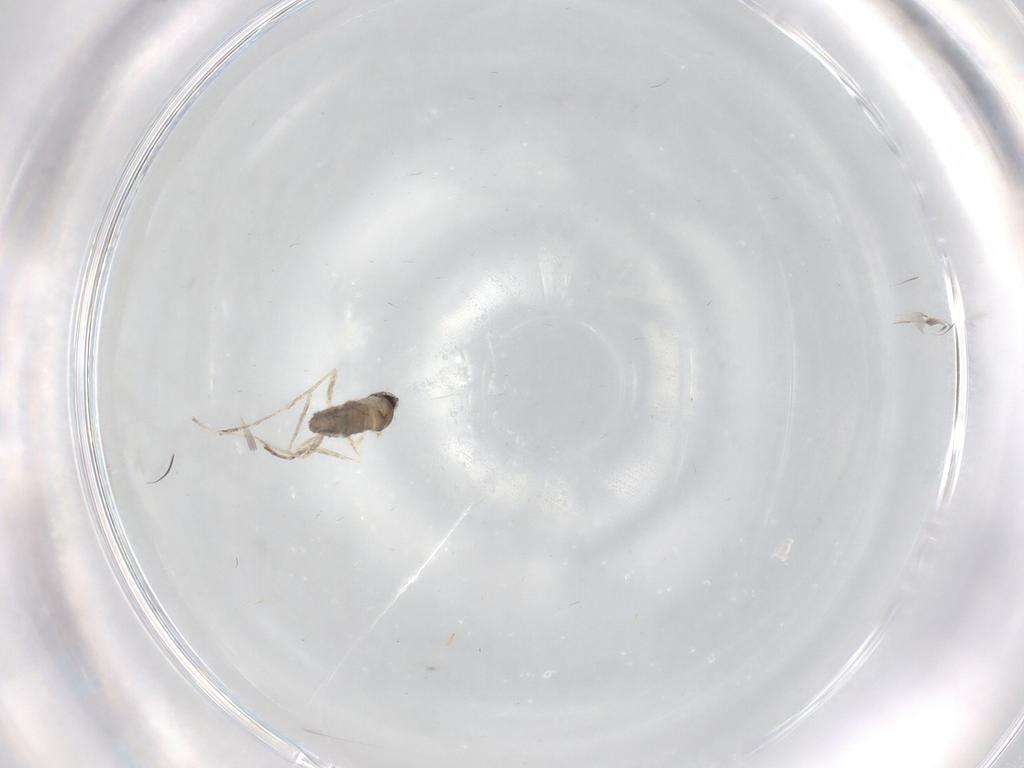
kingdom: Animalia
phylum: Arthropoda
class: Insecta
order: Diptera
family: Cecidomyiidae
